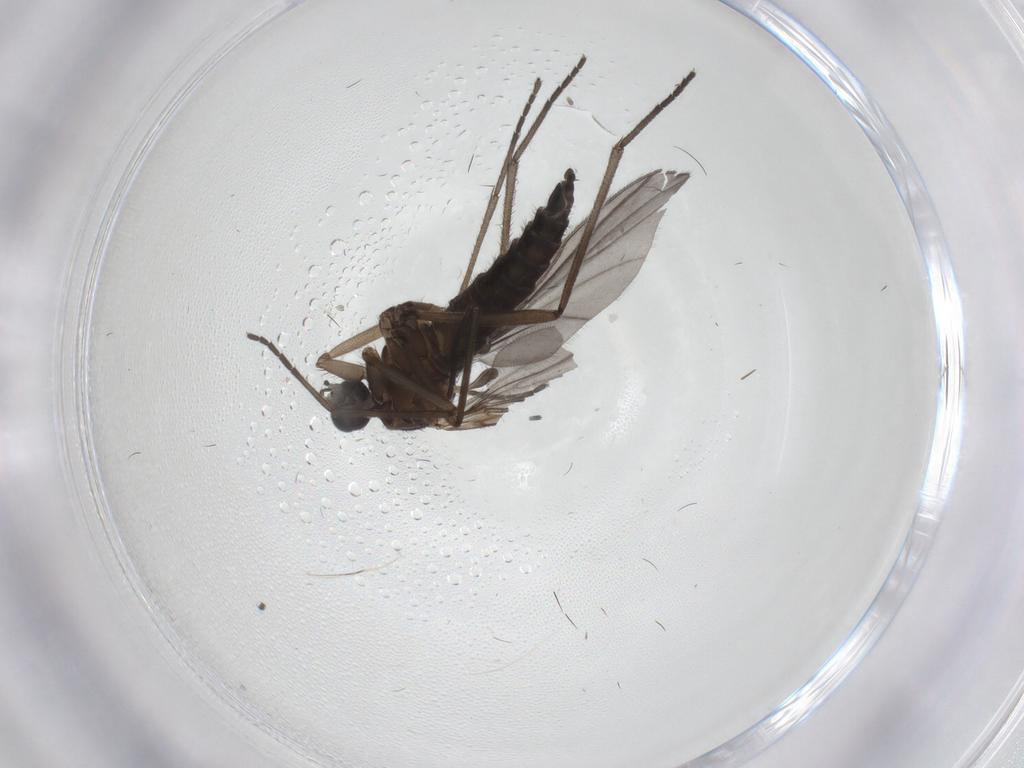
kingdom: Animalia
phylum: Arthropoda
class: Insecta
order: Diptera
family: Sciaridae
